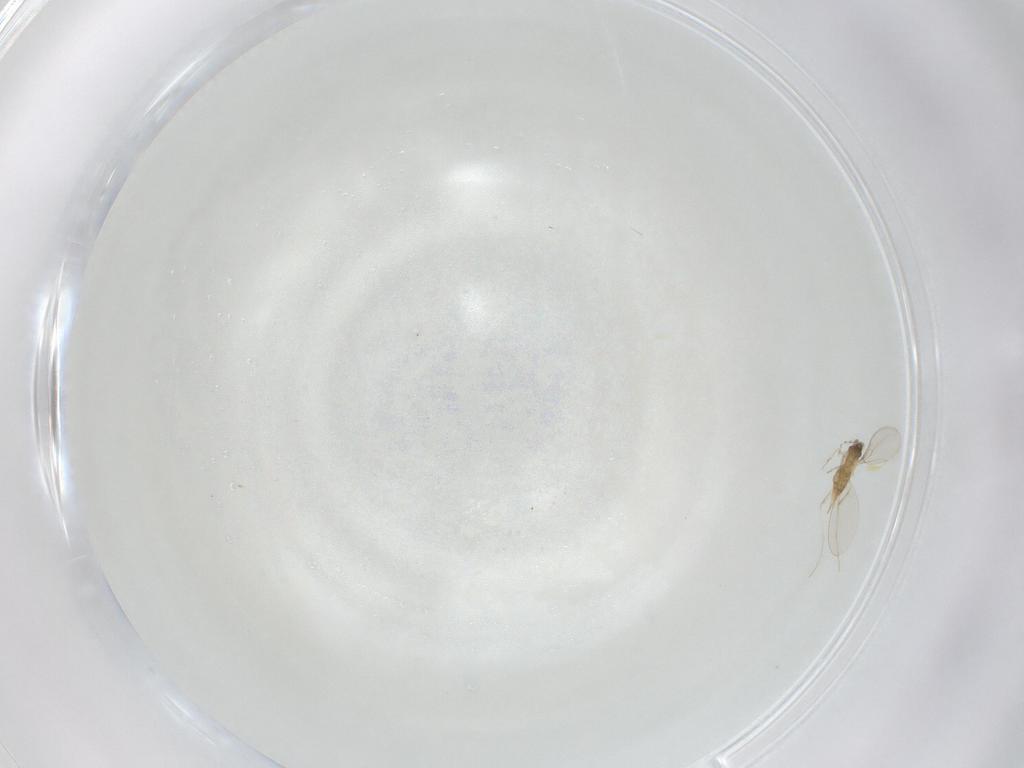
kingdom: Animalia
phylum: Arthropoda
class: Insecta
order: Diptera
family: Cecidomyiidae
